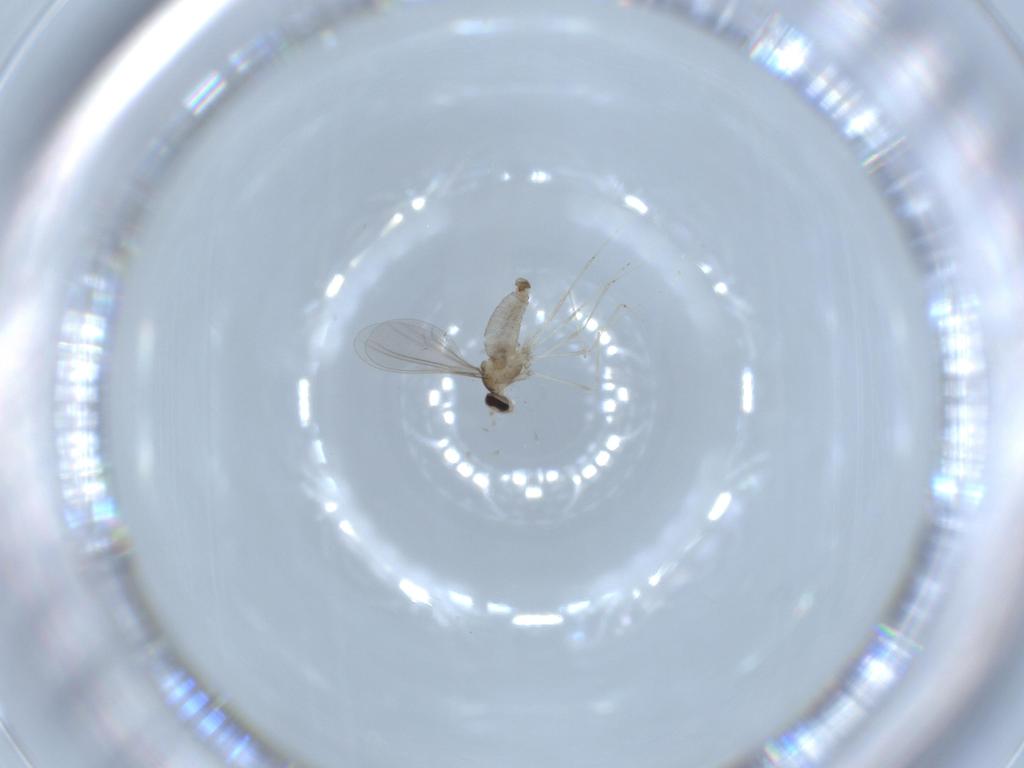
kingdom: Animalia
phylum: Arthropoda
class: Insecta
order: Diptera
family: Cecidomyiidae
